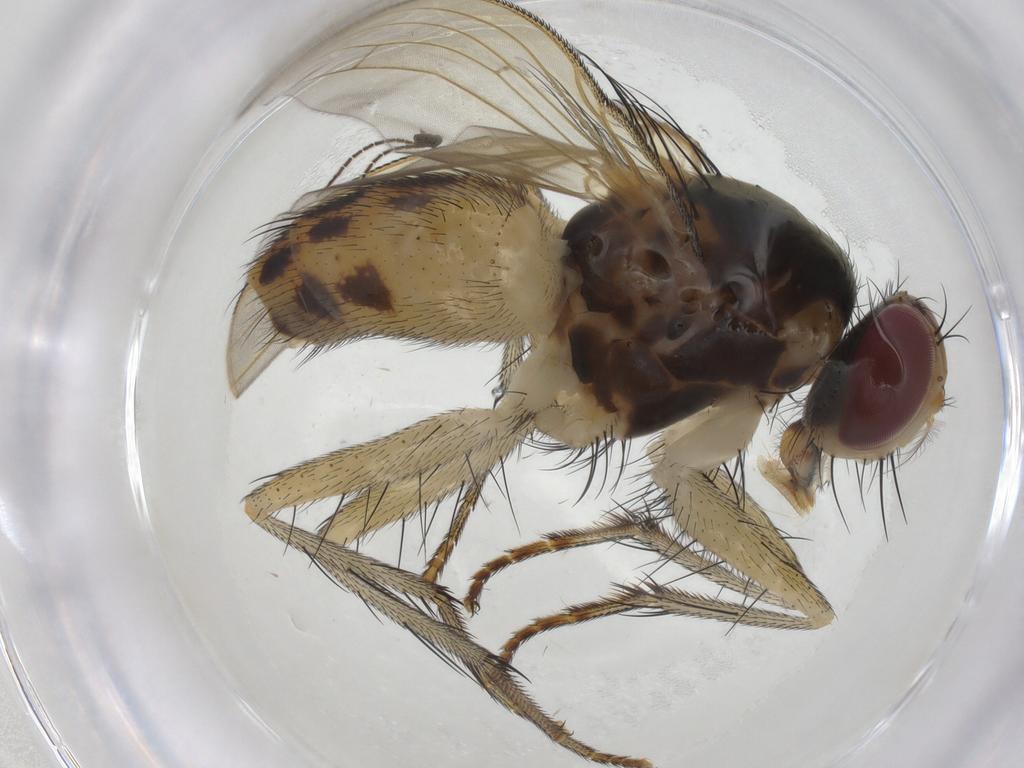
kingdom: Animalia
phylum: Arthropoda
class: Insecta
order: Diptera
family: Muscidae
